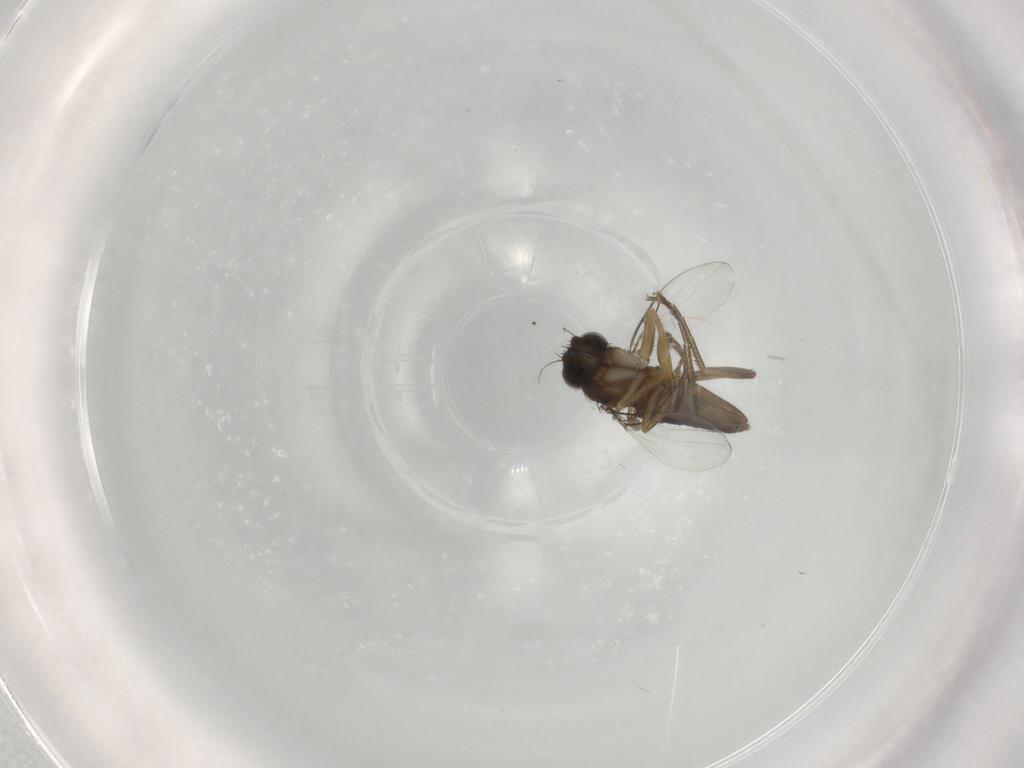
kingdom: Animalia
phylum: Arthropoda
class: Insecta
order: Diptera
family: Phoridae
